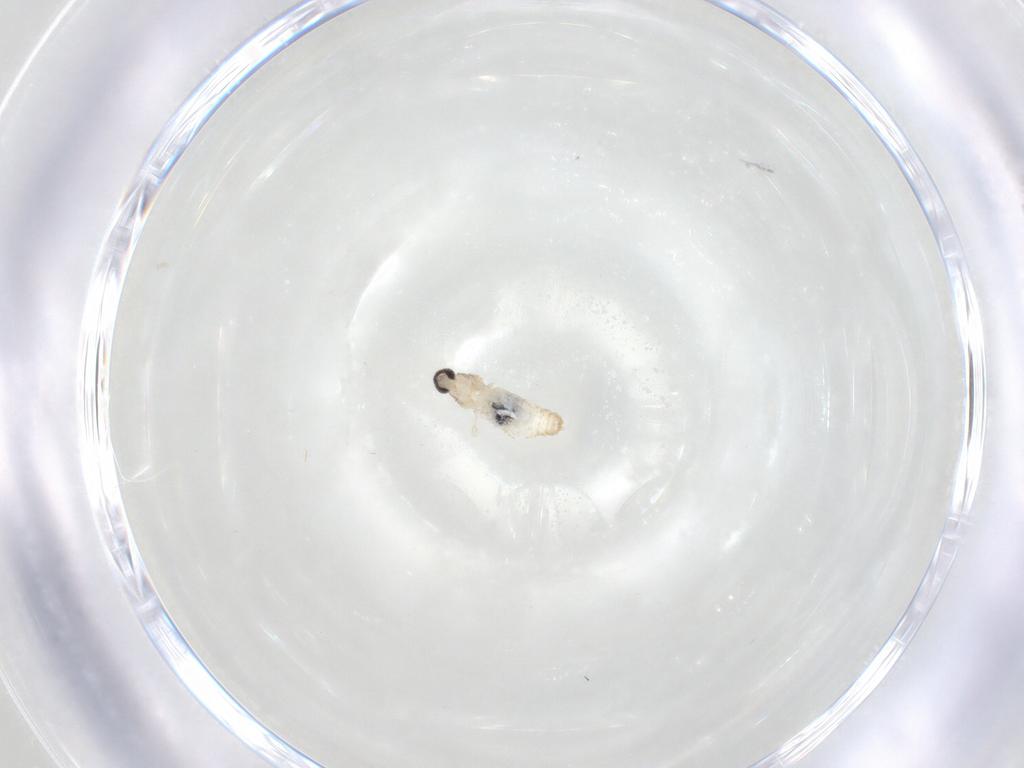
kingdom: Animalia
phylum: Arthropoda
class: Insecta
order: Diptera
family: Cecidomyiidae
